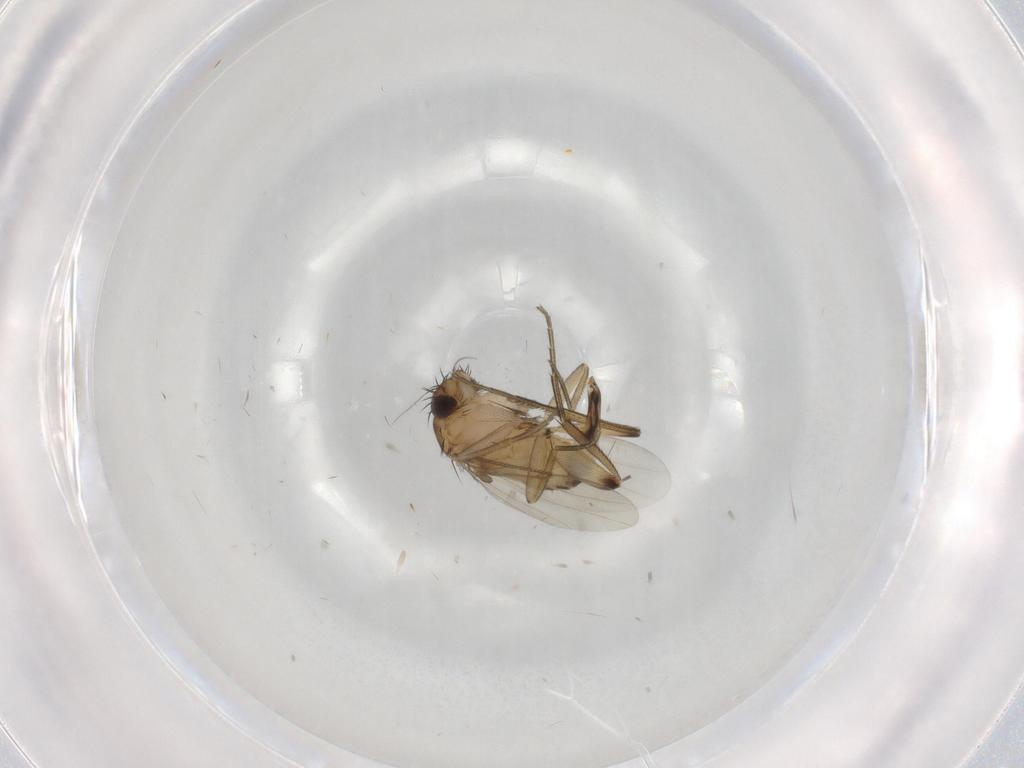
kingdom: Animalia
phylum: Arthropoda
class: Insecta
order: Diptera
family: Phoridae
